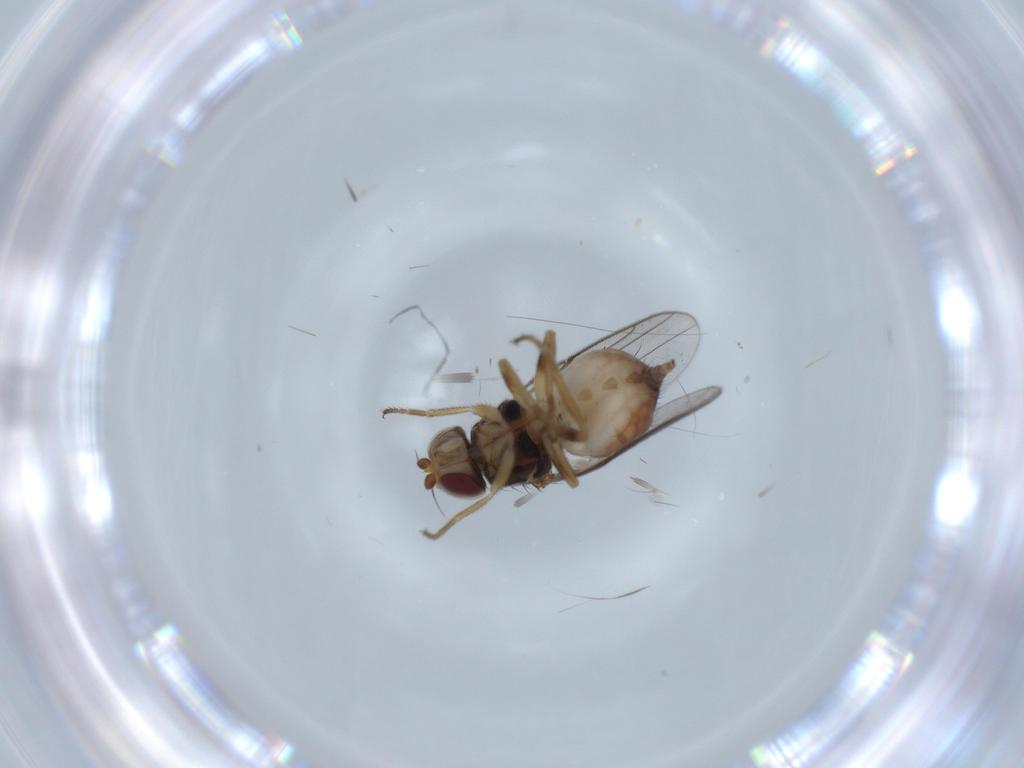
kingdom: Animalia
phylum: Arthropoda
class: Insecta
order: Diptera
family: Chloropidae
